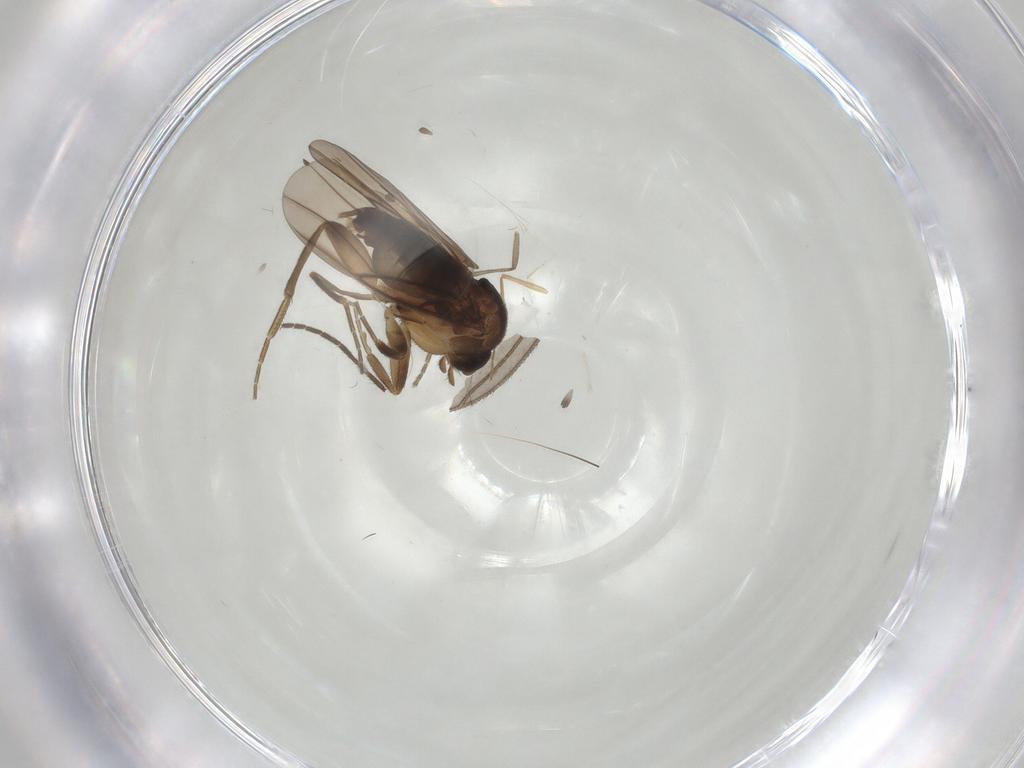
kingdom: Animalia
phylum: Arthropoda
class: Insecta
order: Diptera
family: Sciaridae
